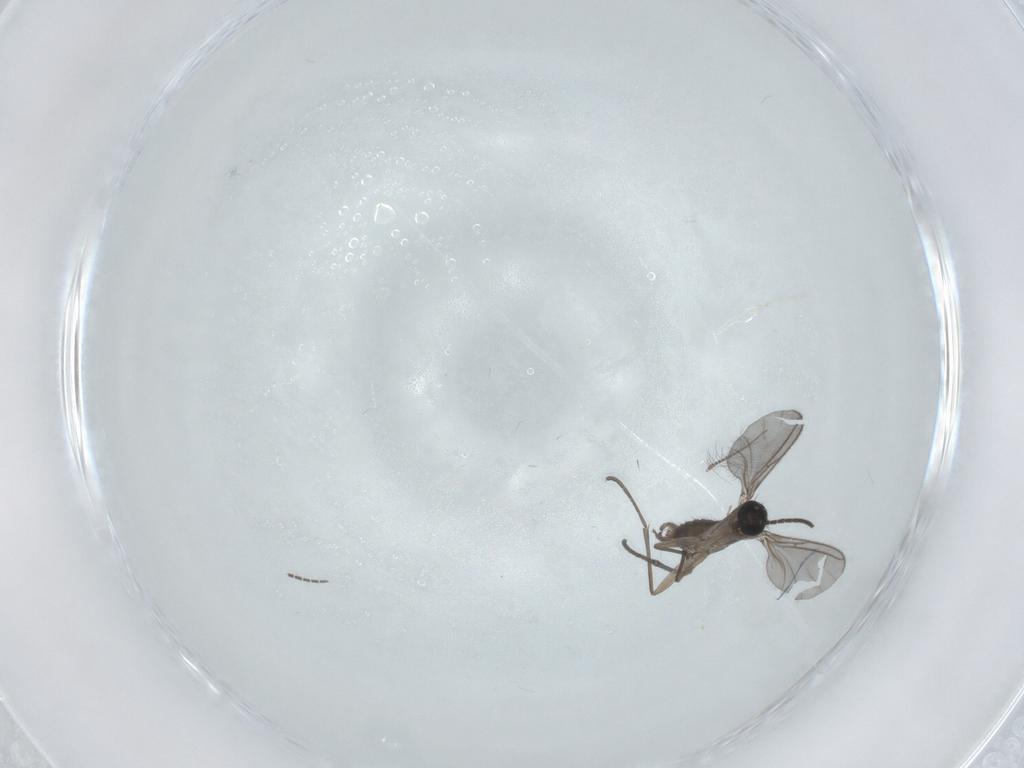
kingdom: Animalia
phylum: Arthropoda
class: Insecta
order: Diptera
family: Sciaridae
